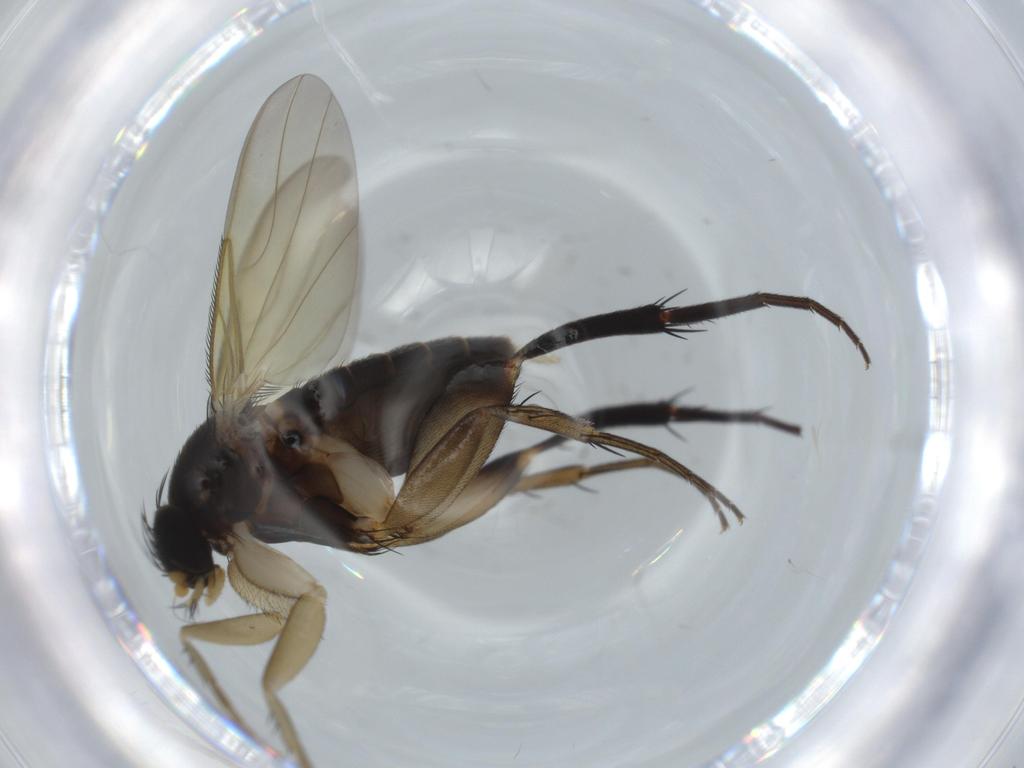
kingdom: Animalia
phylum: Arthropoda
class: Insecta
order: Diptera
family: Phoridae
